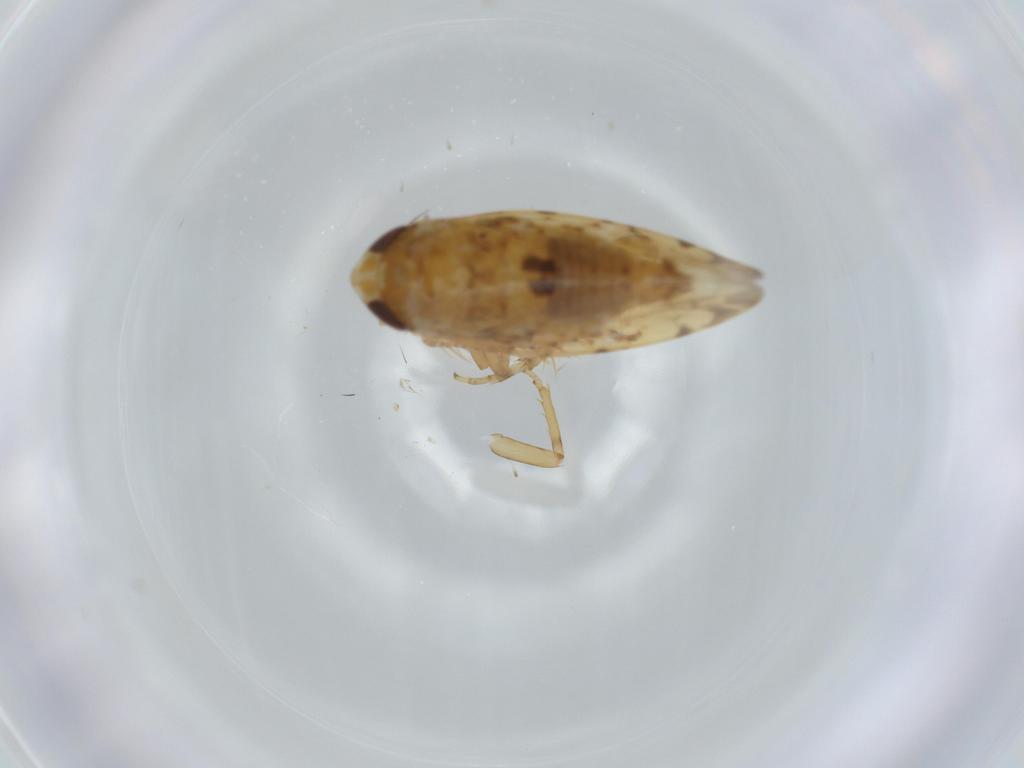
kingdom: Animalia
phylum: Arthropoda
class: Insecta
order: Hemiptera
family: Cicadellidae
